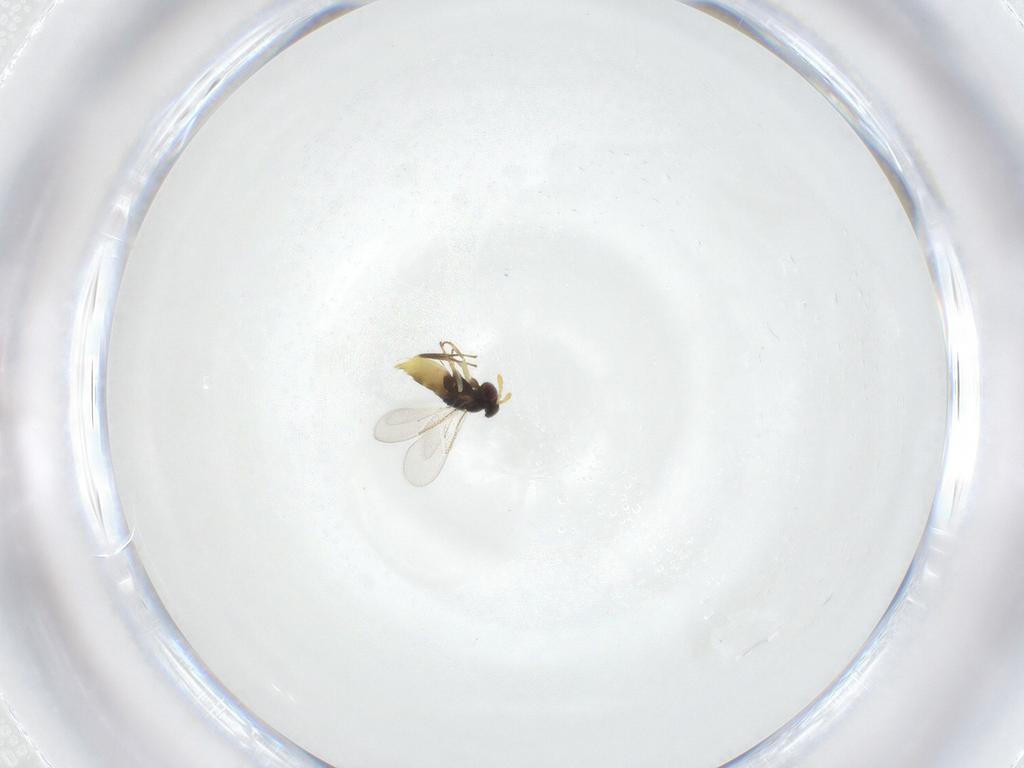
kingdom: Animalia
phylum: Arthropoda
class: Insecta
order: Hymenoptera
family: Aphelinidae
